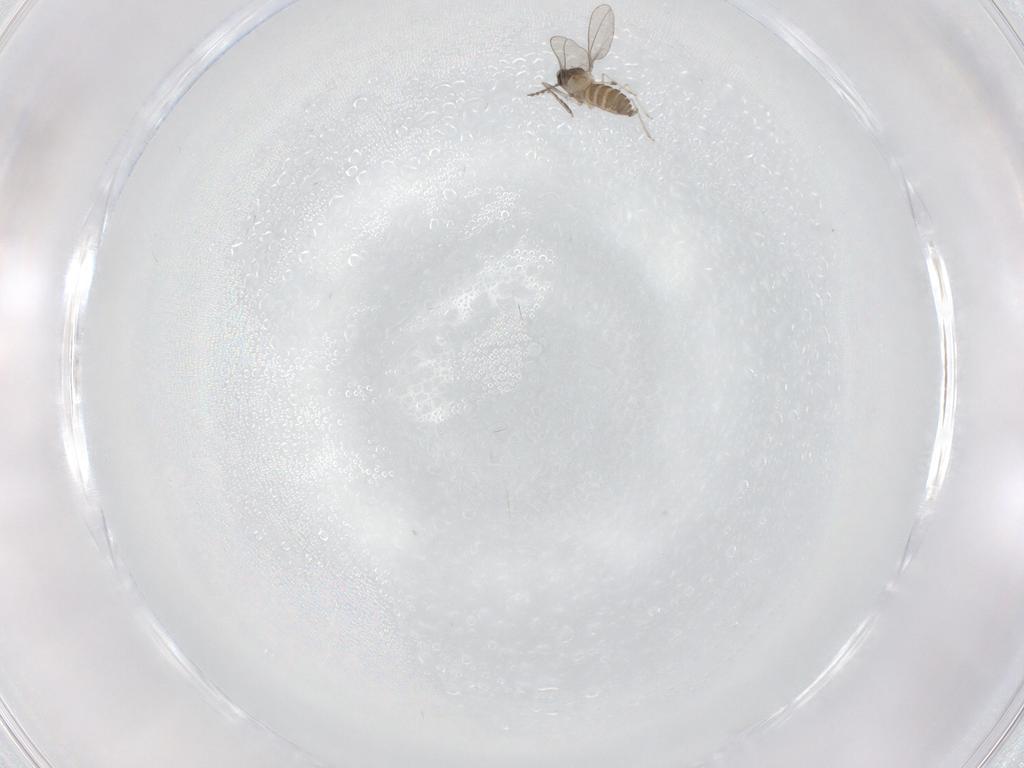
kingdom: Animalia
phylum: Arthropoda
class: Insecta
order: Diptera
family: Cecidomyiidae
